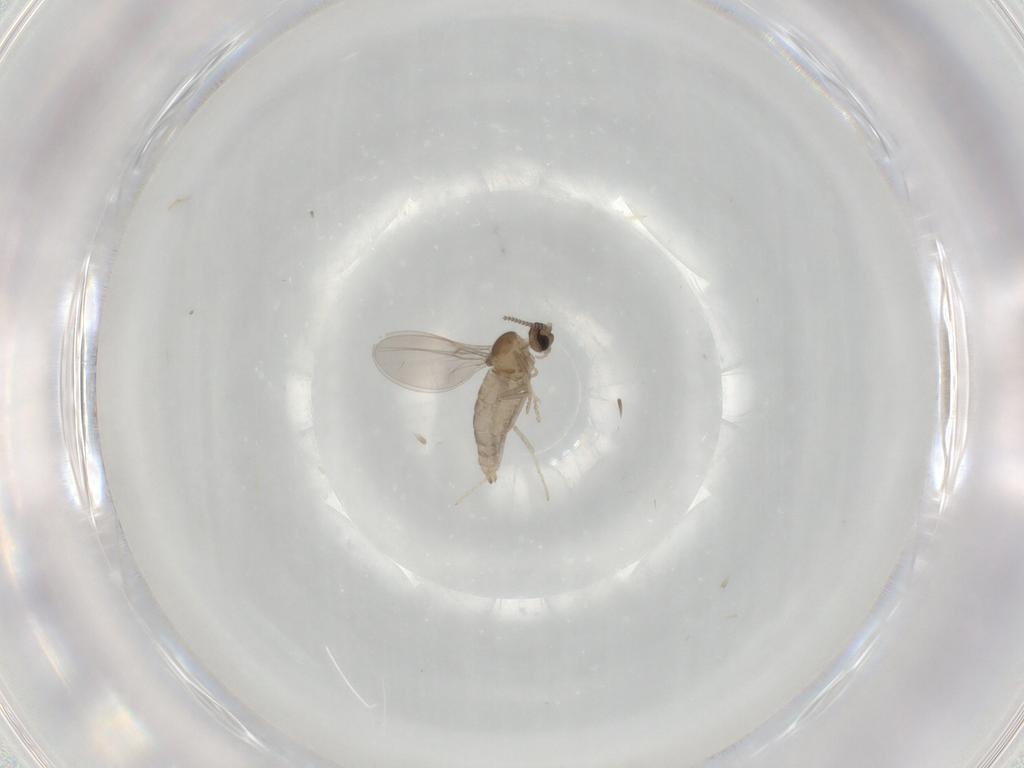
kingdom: Animalia
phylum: Arthropoda
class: Insecta
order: Diptera
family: Cecidomyiidae
